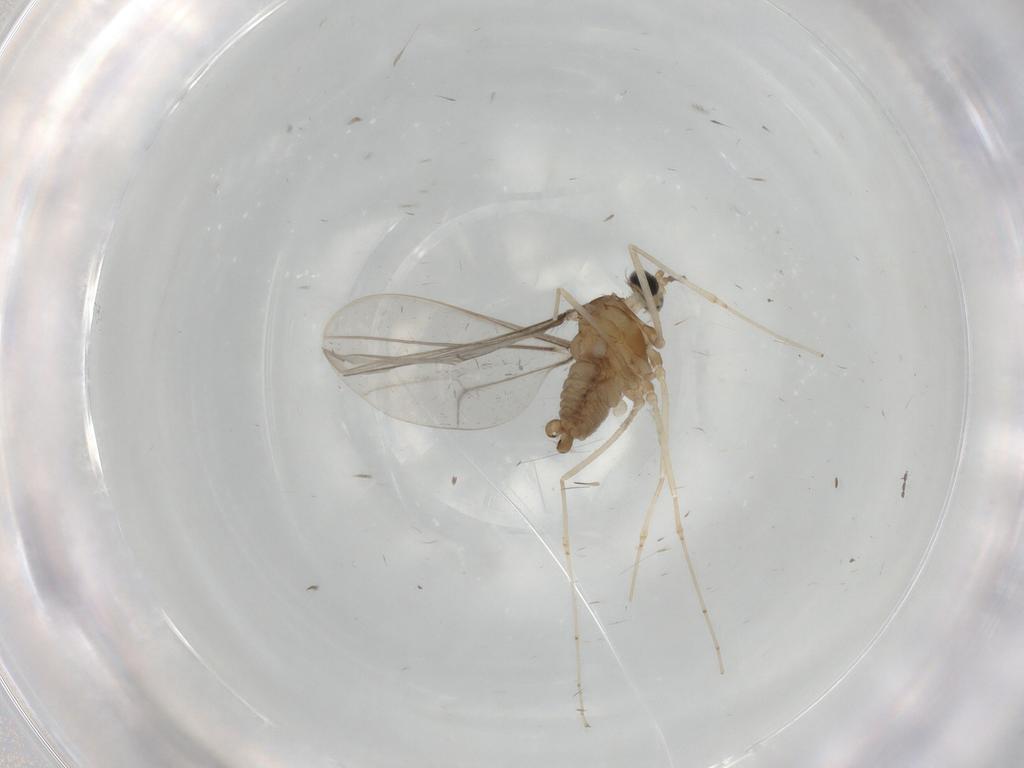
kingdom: Animalia
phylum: Arthropoda
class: Insecta
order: Diptera
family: Cecidomyiidae
